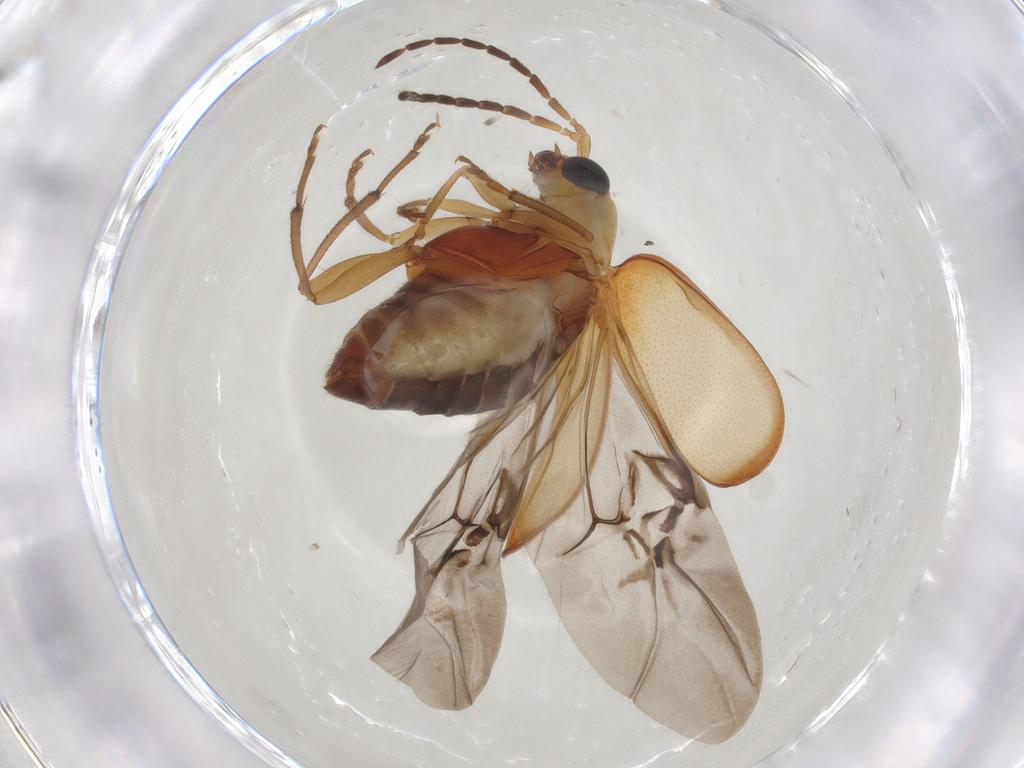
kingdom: Animalia
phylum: Arthropoda
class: Insecta
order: Coleoptera
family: Chrysomelidae
